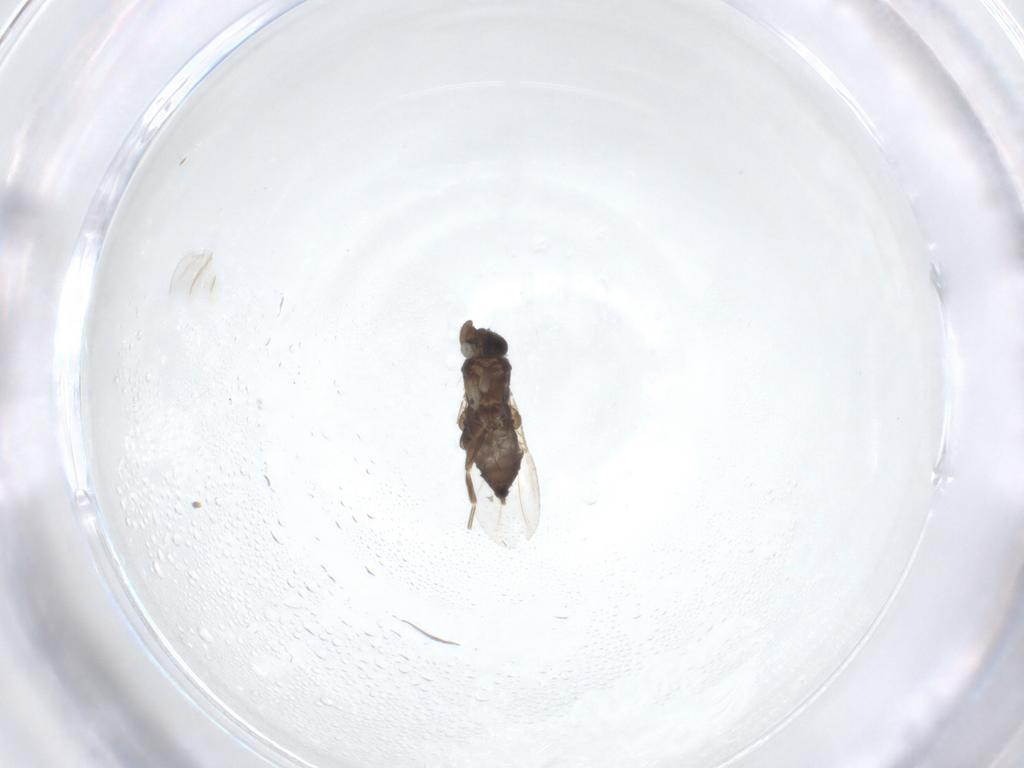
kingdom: Animalia
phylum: Arthropoda
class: Insecta
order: Diptera
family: Phoridae
